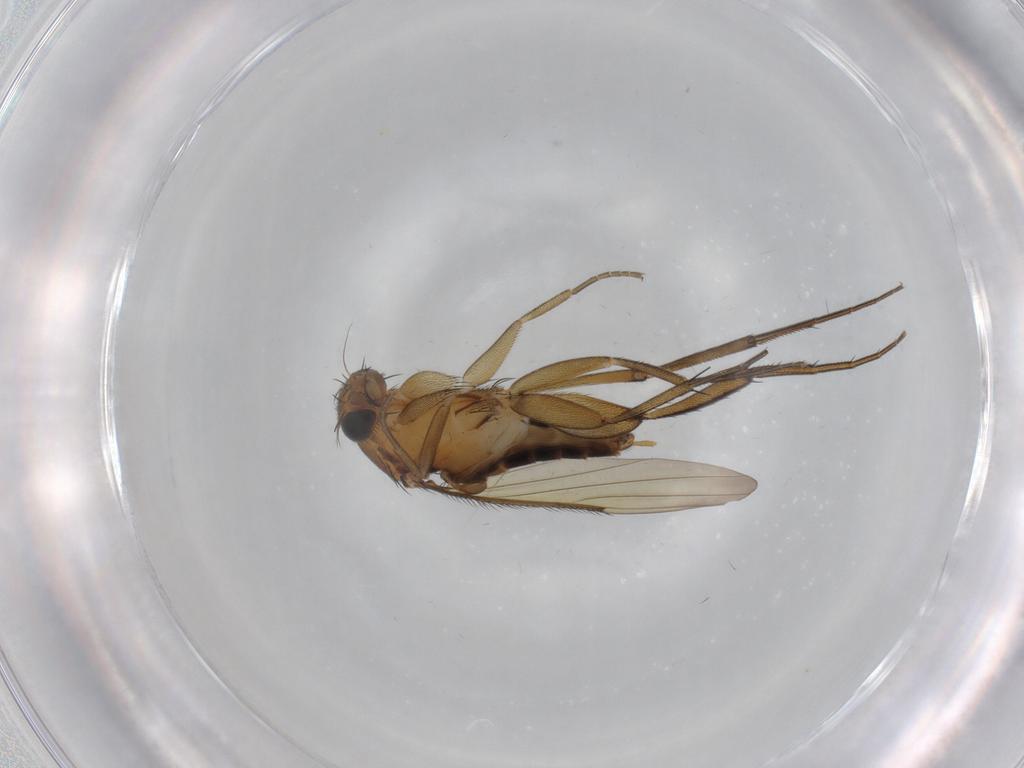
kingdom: Animalia
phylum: Arthropoda
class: Insecta
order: Diptera
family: Phoridae
